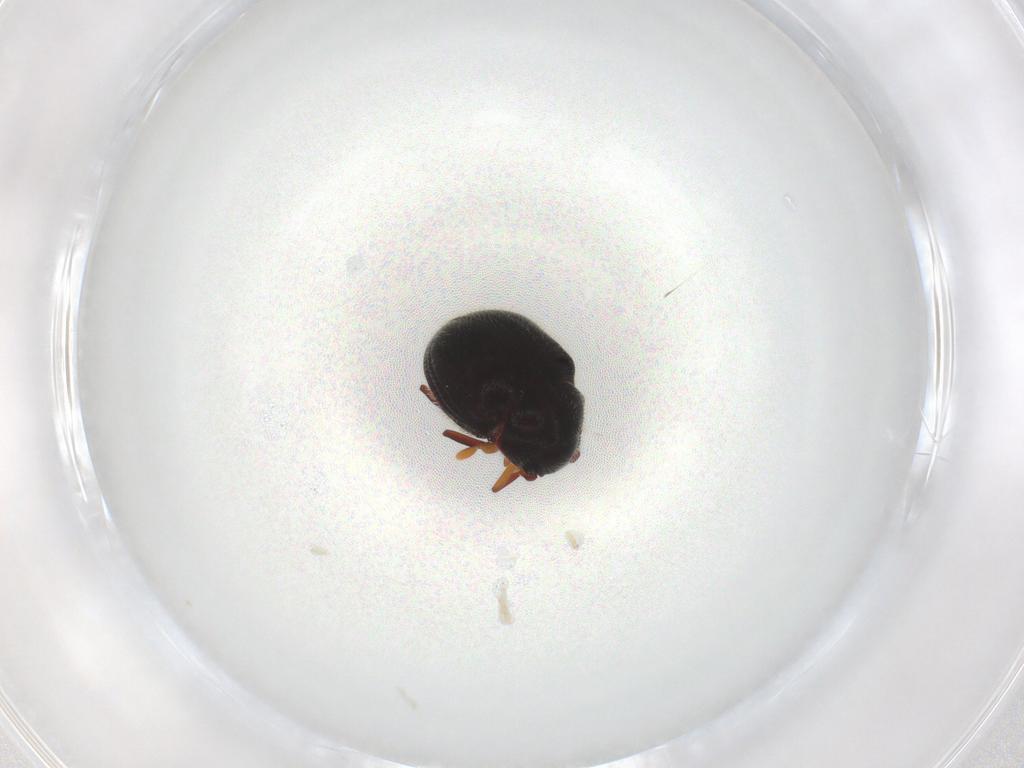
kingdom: Animalia
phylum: Arthropoda
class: Insecta
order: Coleoptera
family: Ptinidae
